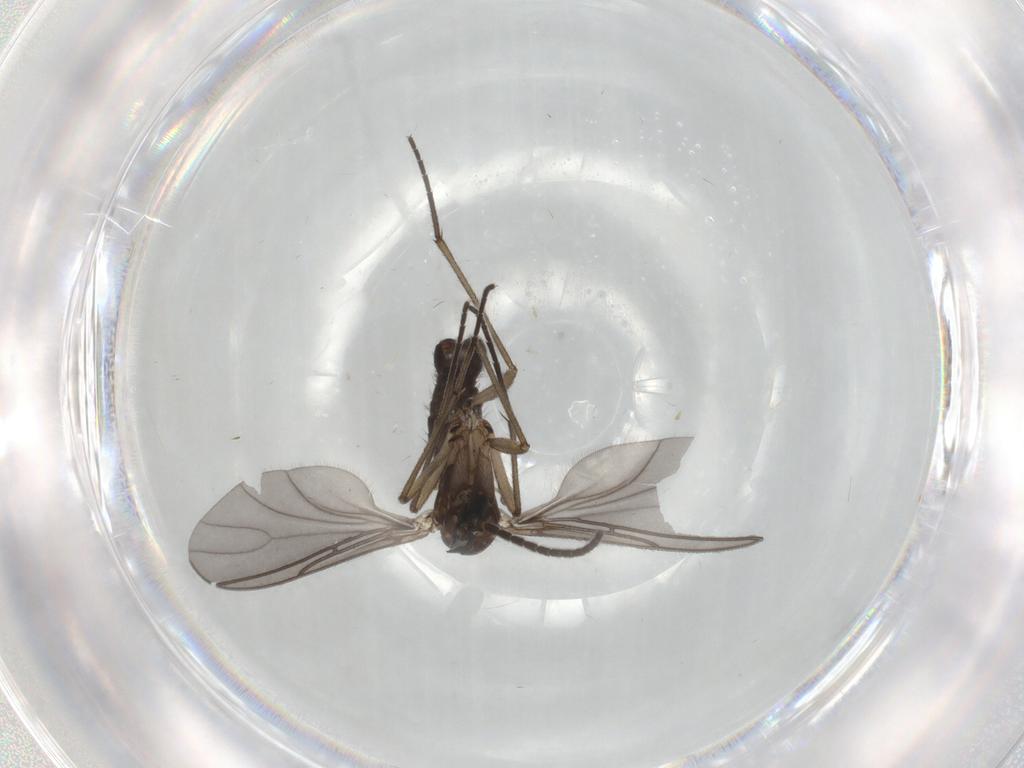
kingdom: Animalia
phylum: Arthropoda
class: Insecta
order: Diptera
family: Sciaridae
